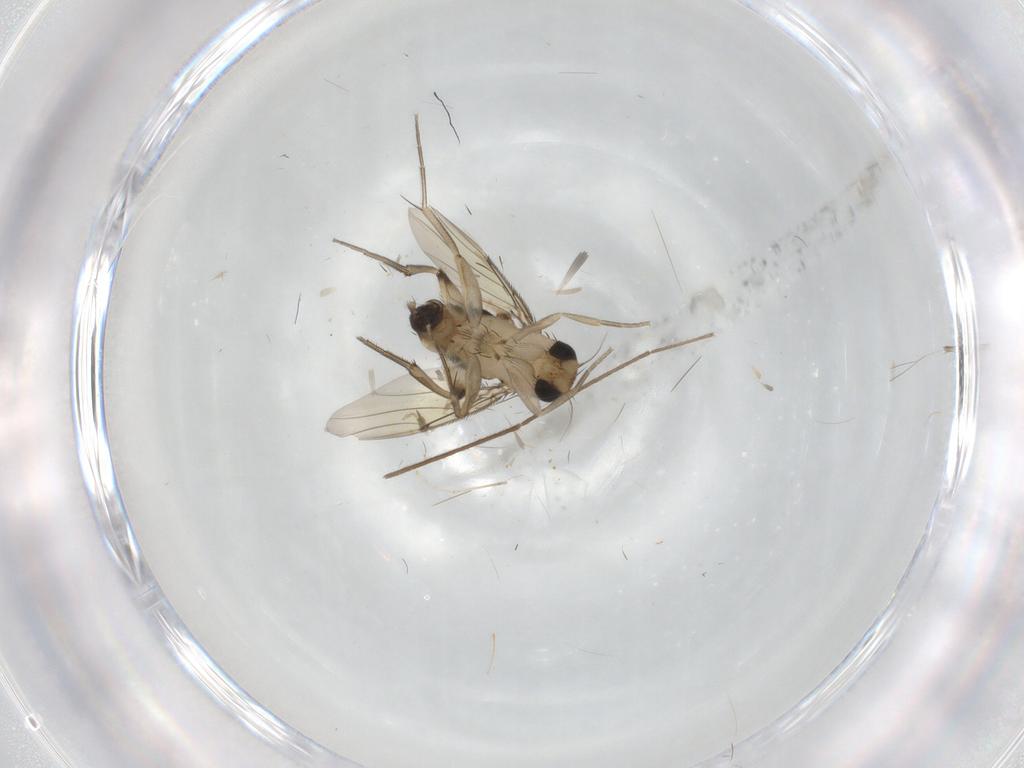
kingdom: Animalia
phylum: Arthropoda
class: Insecta
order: Diptera
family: Phoridae
